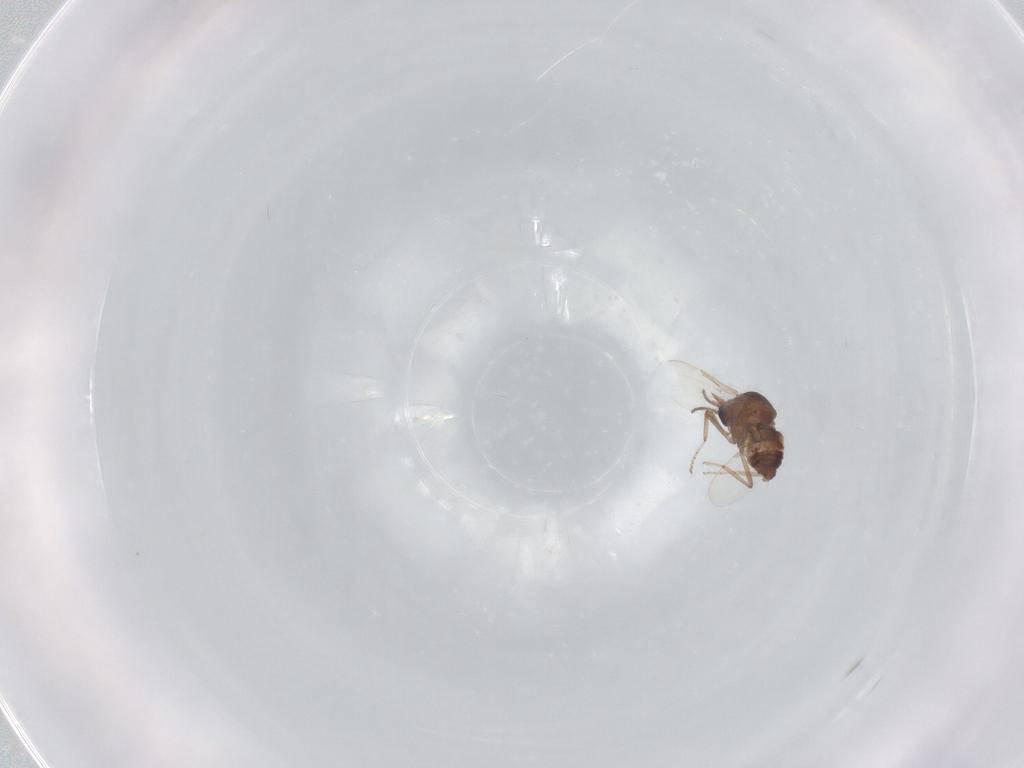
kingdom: Animalia
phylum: Arthropoda
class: Insecta
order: Diptera
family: Ceratopogonidae
